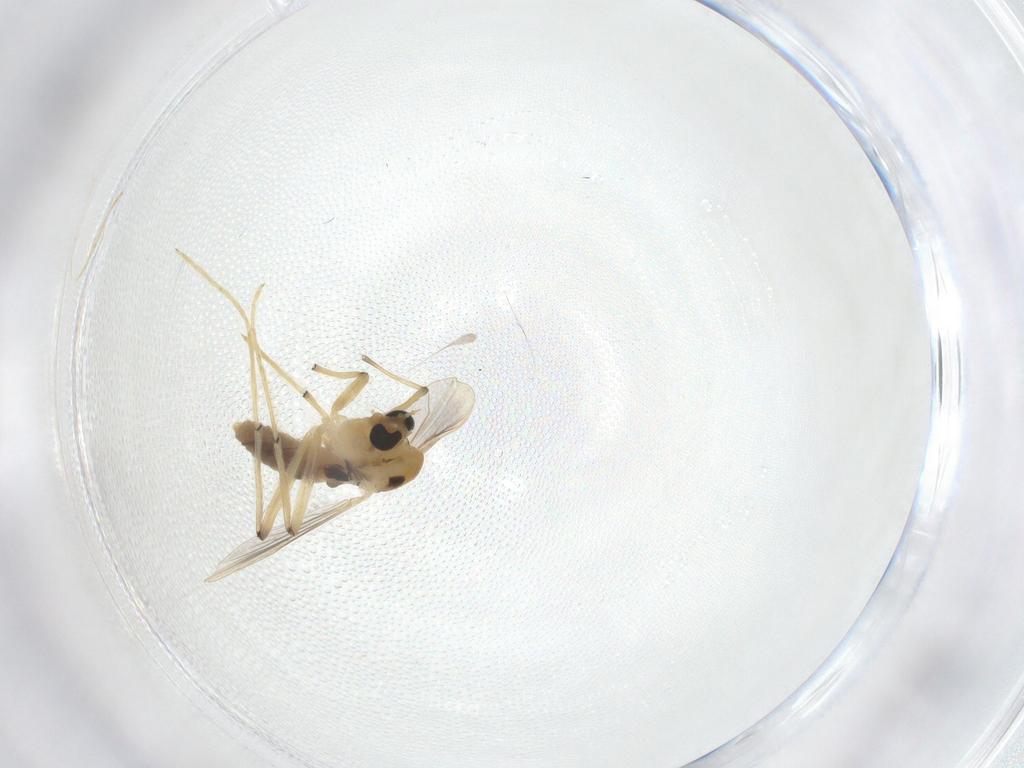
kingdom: Animalia
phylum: Arthropoda
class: Insecta
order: Diptera
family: Chironomidae
